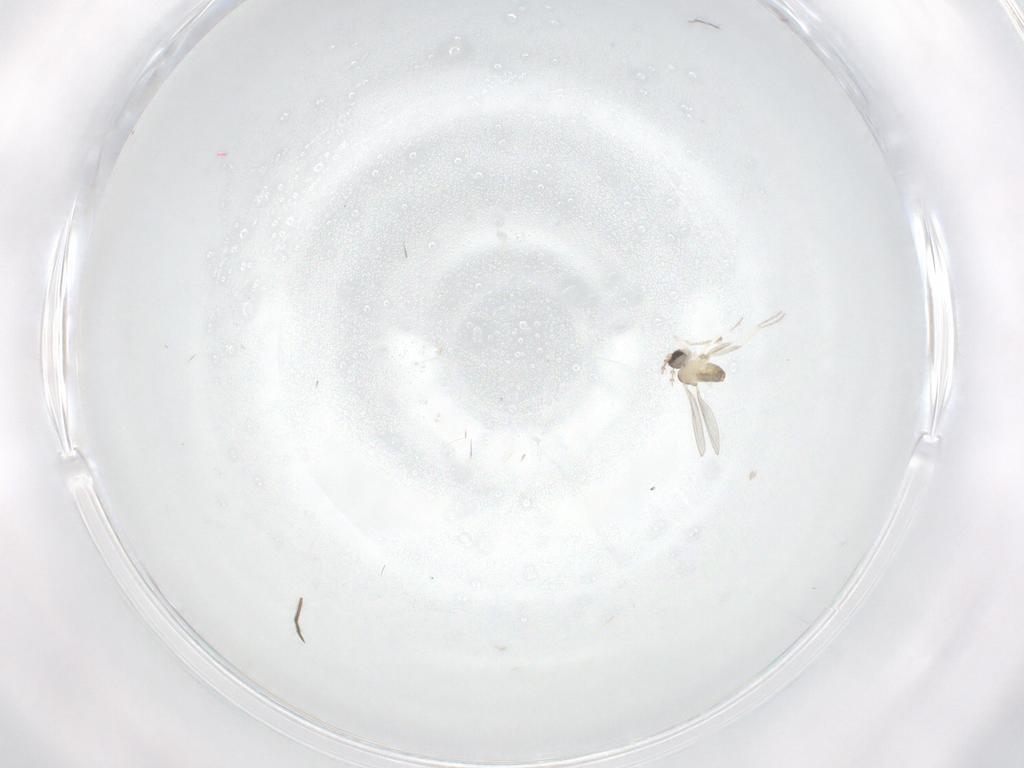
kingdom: Animalia
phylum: Arthropoda
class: Insecta
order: Diptera
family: Cecidomyiidae
